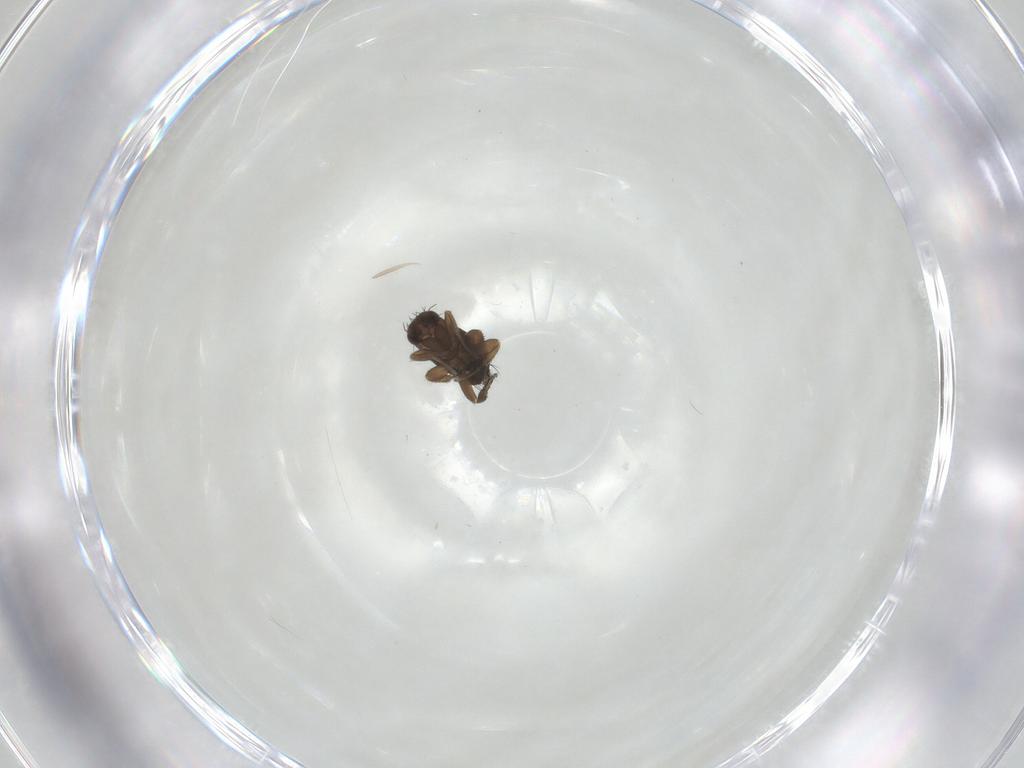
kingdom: Animalia
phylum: Arthropoda
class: Insecta
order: Diptera
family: Phoridae
